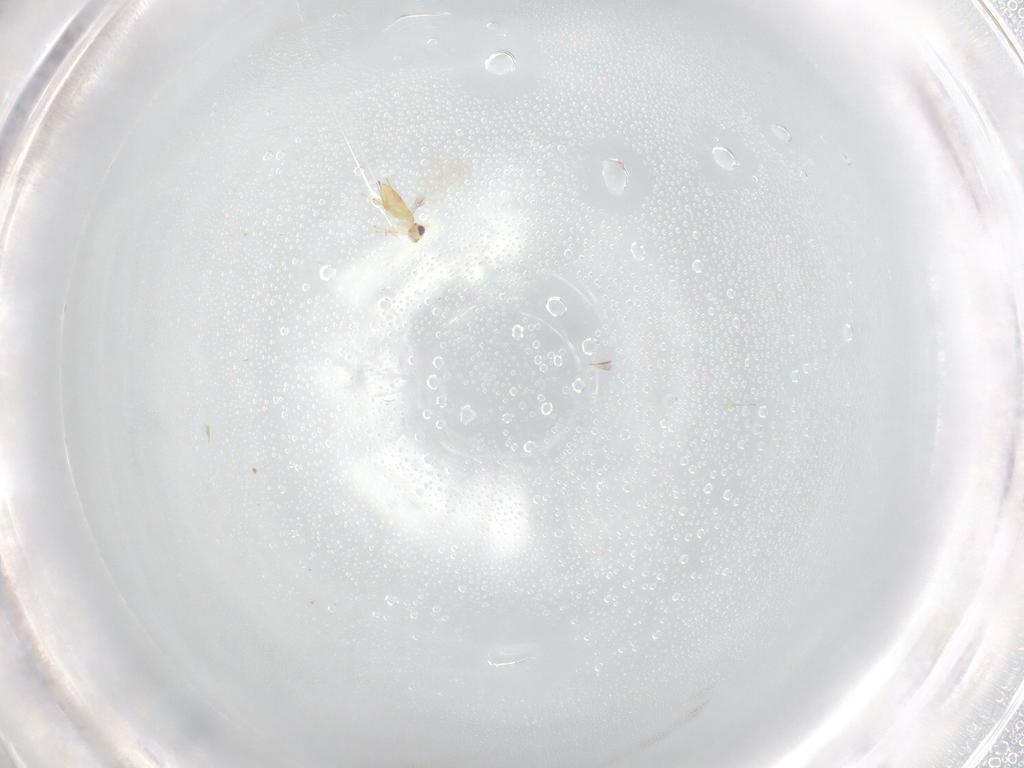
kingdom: Animalia
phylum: Arthropoda
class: Insecta
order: Hymenoptera
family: Mymaridae
